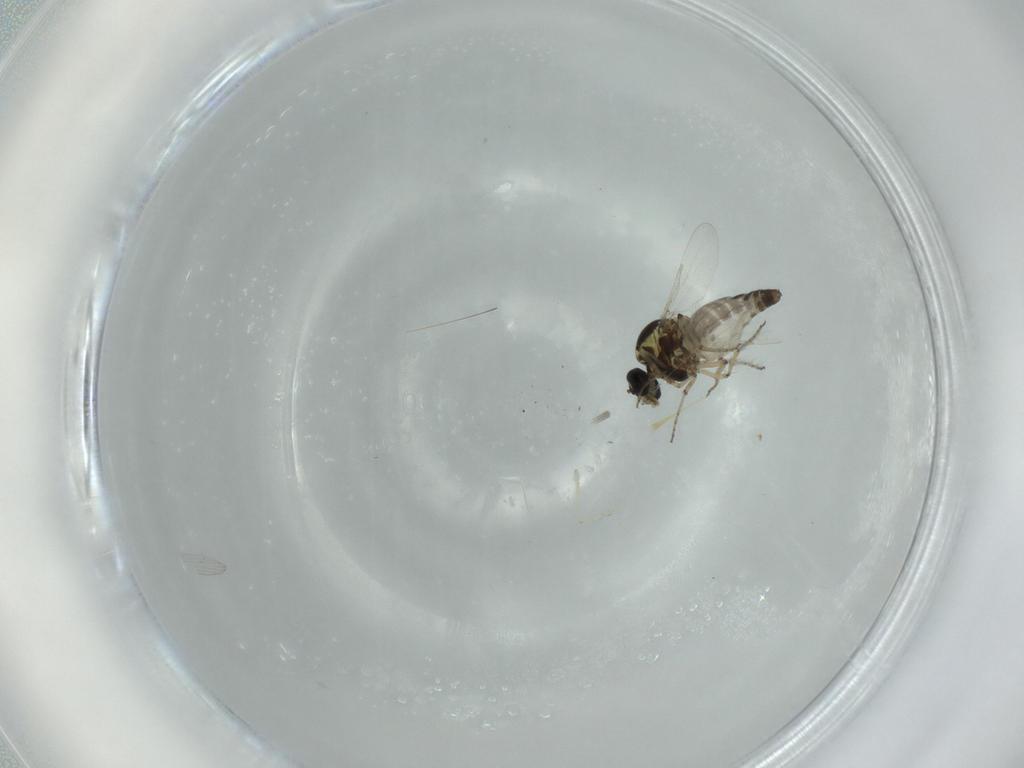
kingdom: Animalia
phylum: Arthropoda
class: Insecta
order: Diptera
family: Cecidomyiidae
